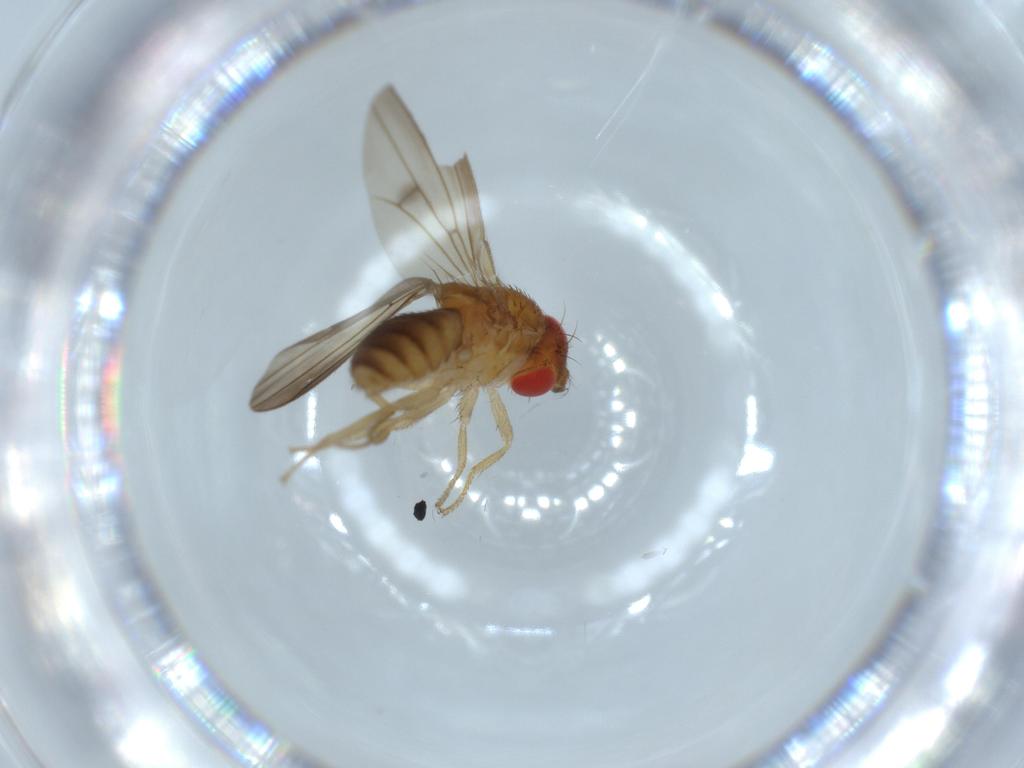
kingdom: Animalia
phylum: Arthropoda
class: Insecta
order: Diptera
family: Drosophilidae
